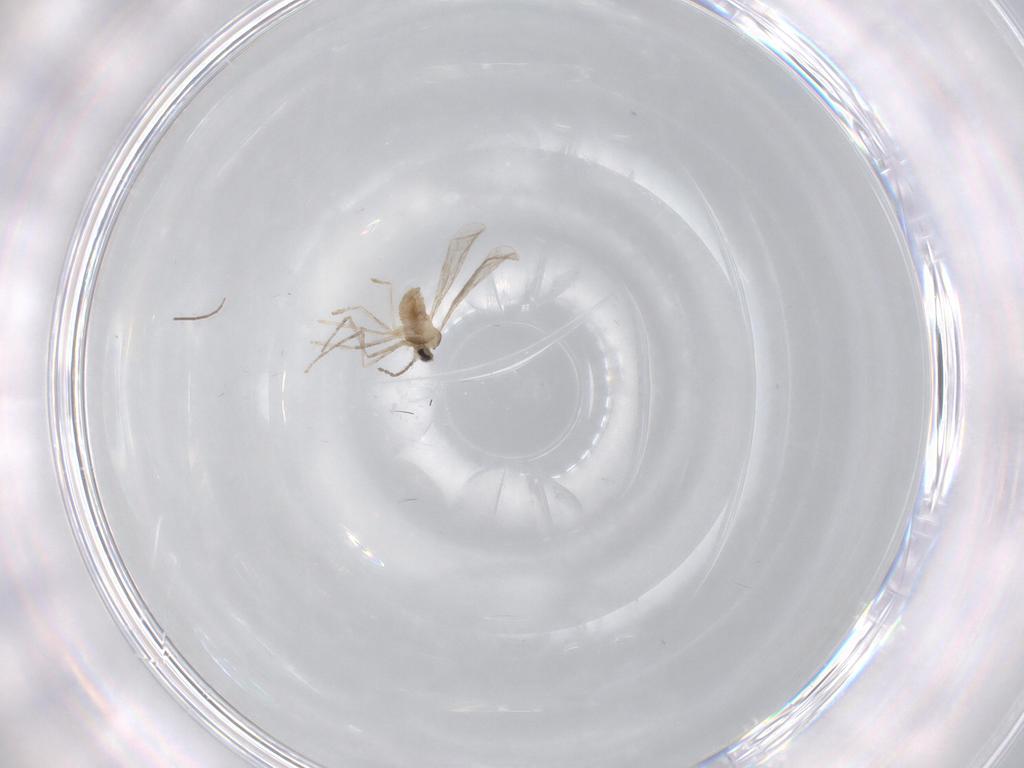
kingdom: Animalia
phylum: Arthropoda
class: Insecta
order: Diptera
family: Cecidomyiidae
